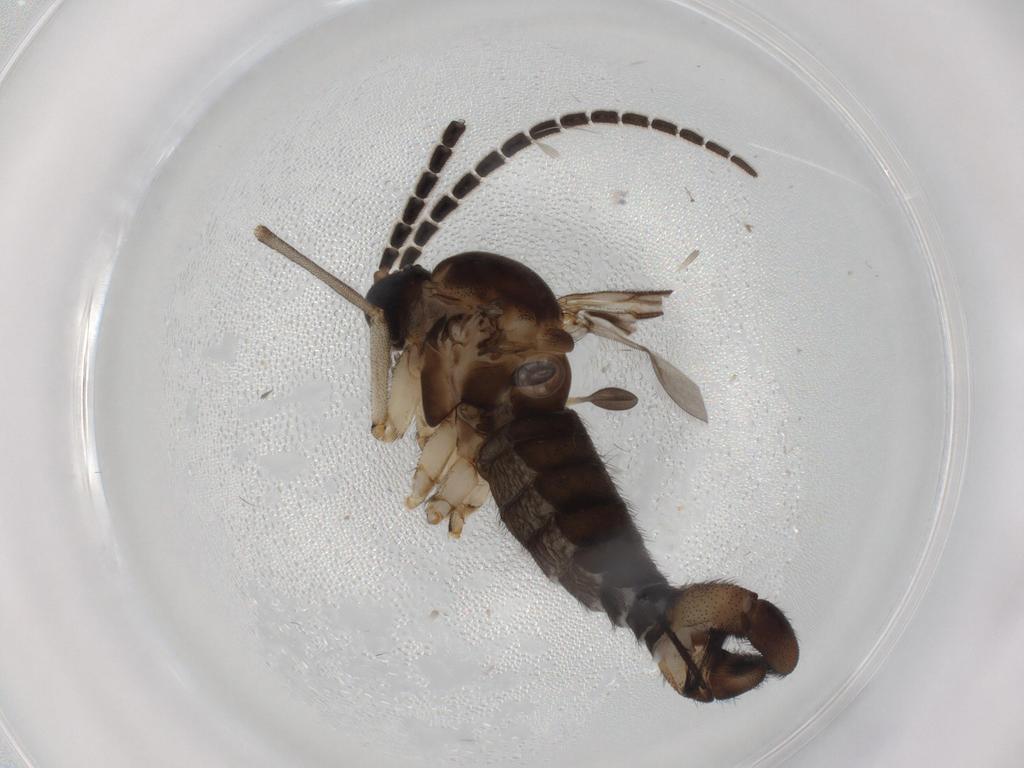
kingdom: Animalia
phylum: Arthropoda
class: Insecta
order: Diptera
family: Sciaridae
